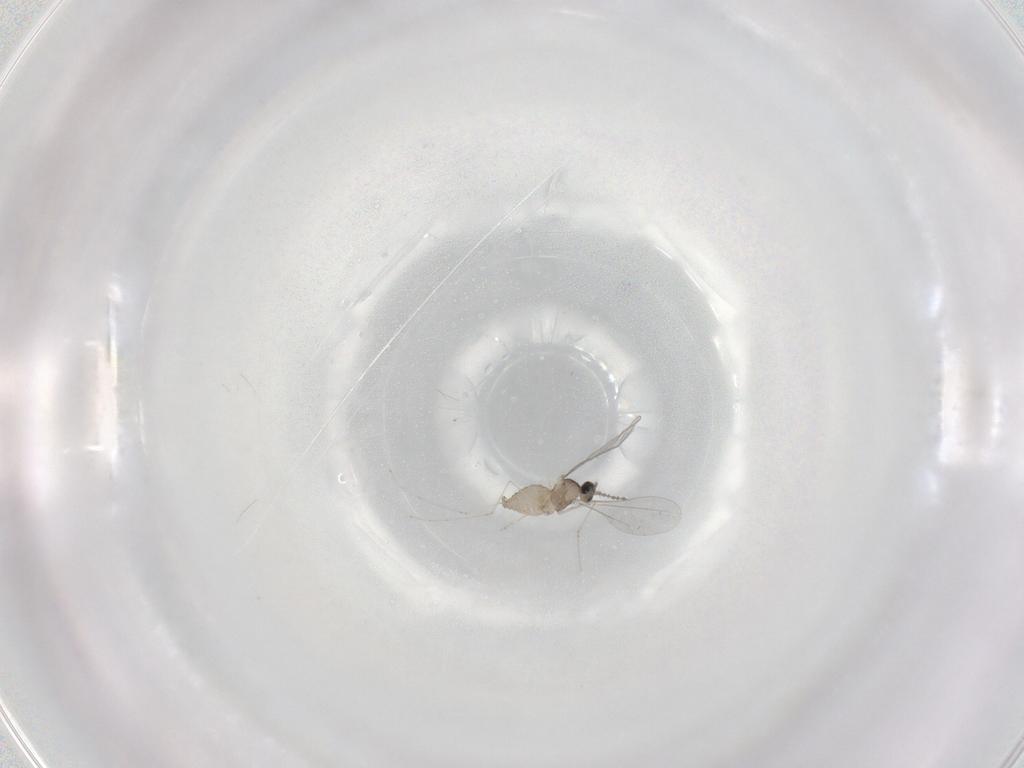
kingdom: Animalia
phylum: Arthropoda
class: Insecta
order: Diptera
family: Cecidomyiidae
